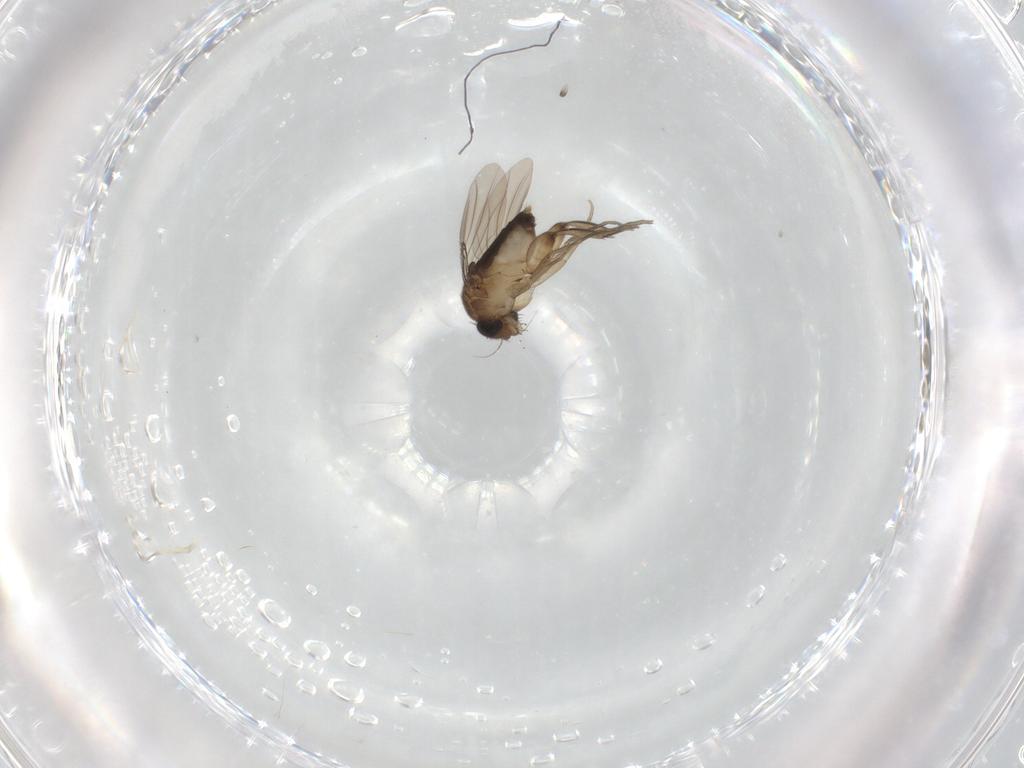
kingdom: Animalia
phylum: Arthropoda
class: Insecta
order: Diptera
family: Phoridae
